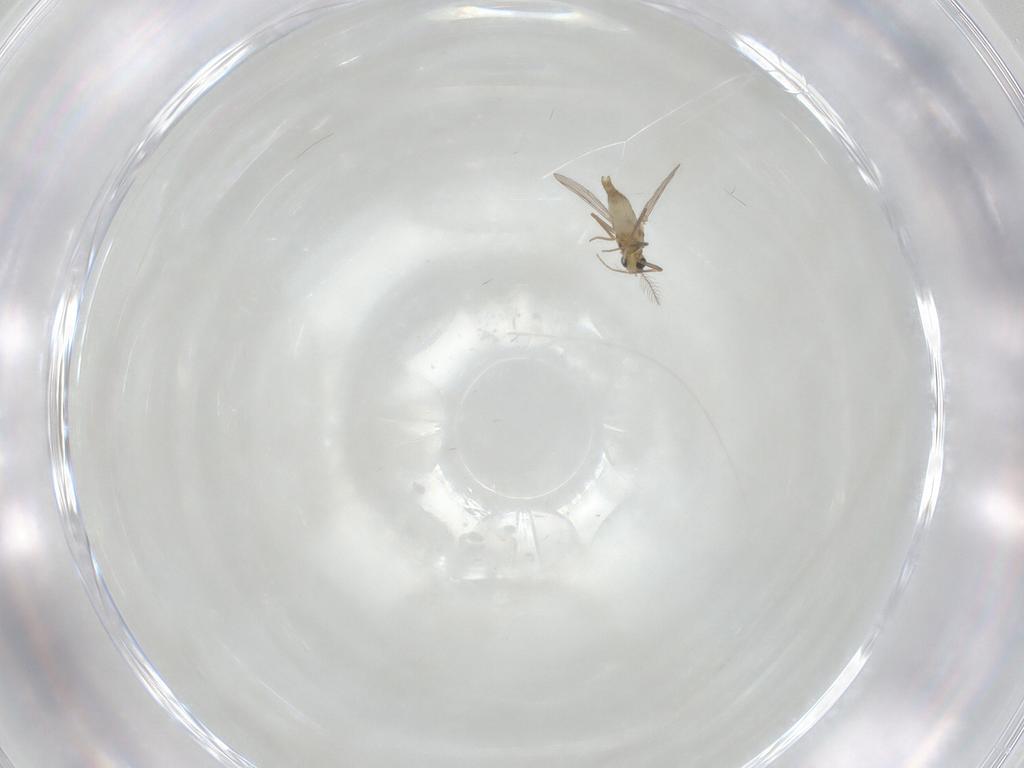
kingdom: Animalia
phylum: Arthropoda
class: Insecta
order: Diptera
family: Chironomidae
